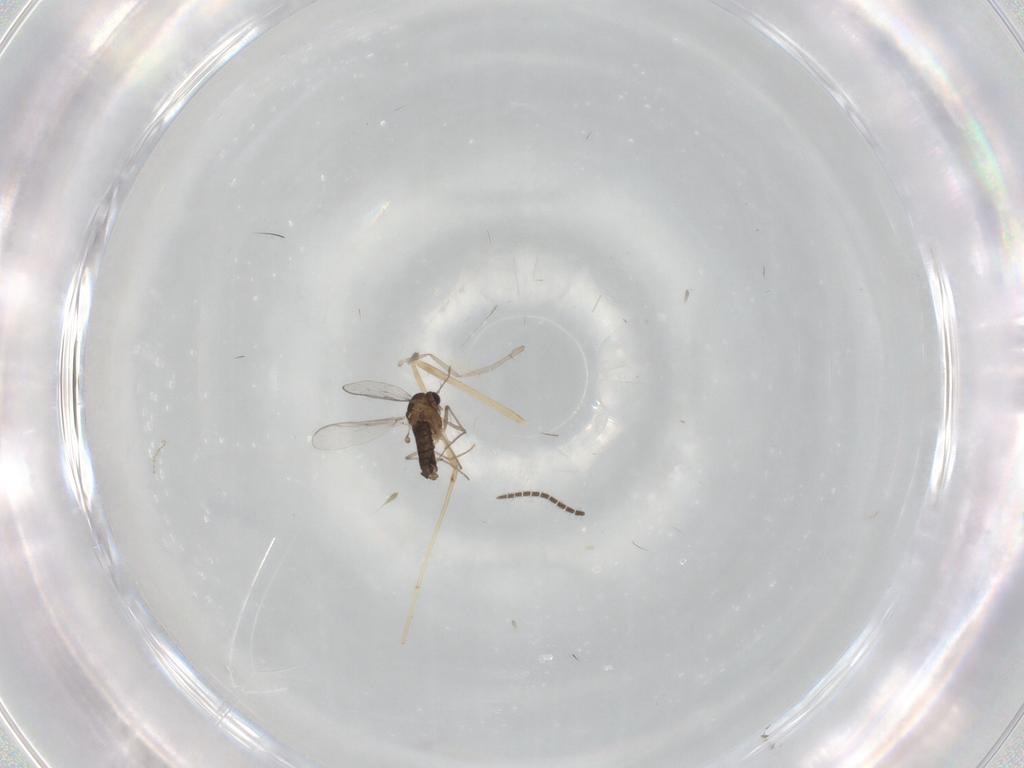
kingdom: Animalia
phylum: Arthropoda
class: Insecta
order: Diptera
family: Chironomidae
